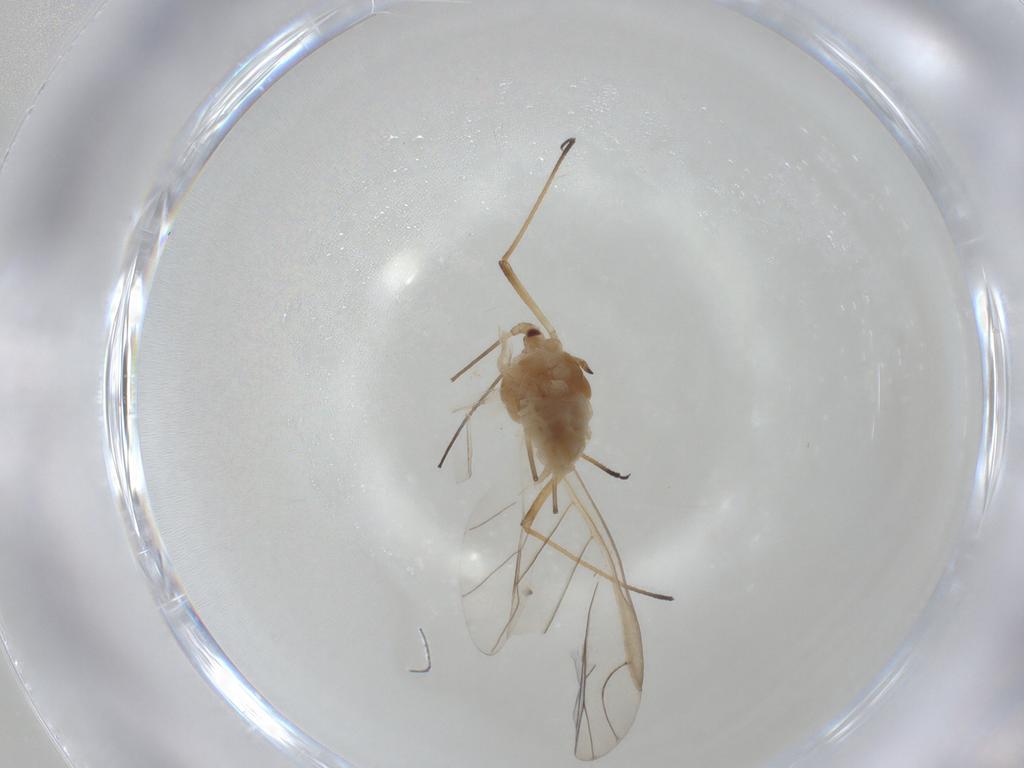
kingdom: Animalia
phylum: Arthropoda
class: Insecta
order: Hemiptera
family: Aphididae
